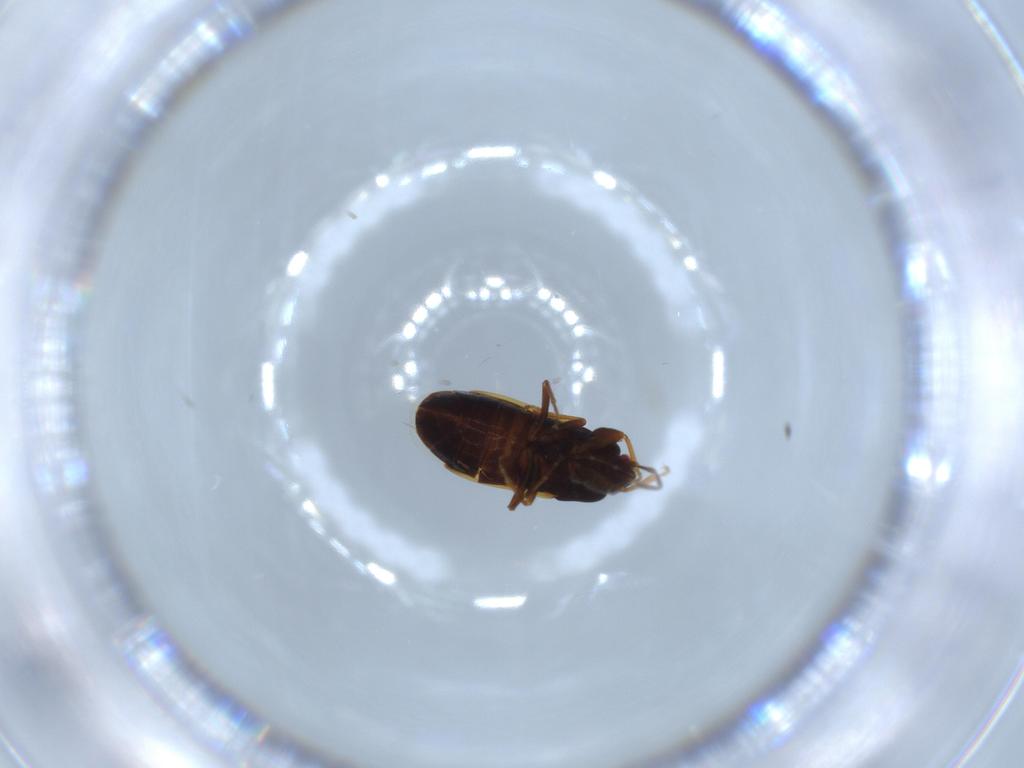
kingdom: Animalia
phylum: Arthropoda
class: Insecta
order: Hemiptera
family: Rhyparochromidae
